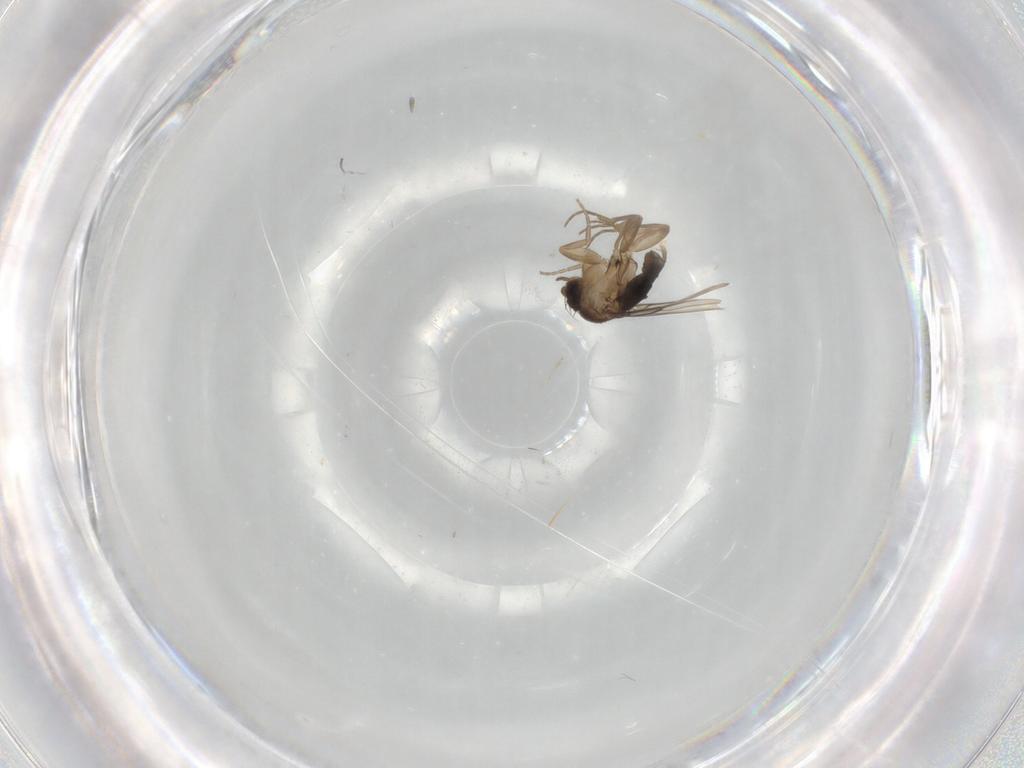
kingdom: Animalia
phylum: Arthropoda
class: Insecta
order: Diptera
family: Phoridae
